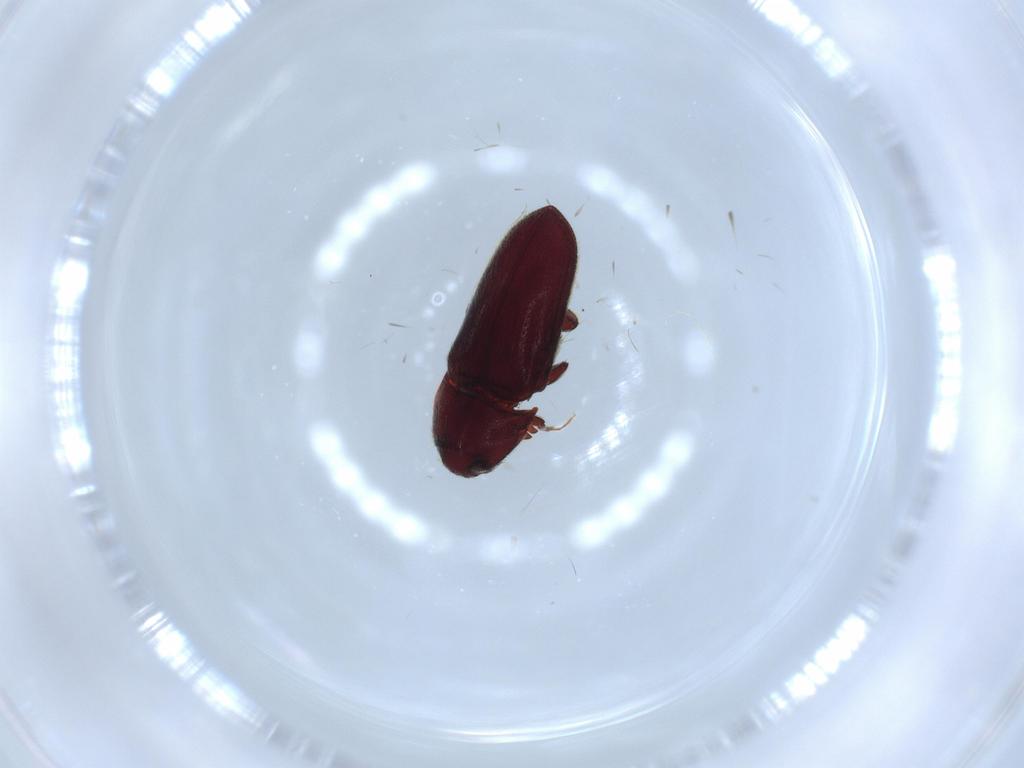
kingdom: Animalia
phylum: Arthropoda
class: Insecta
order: Coleoptera
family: Throscidae
